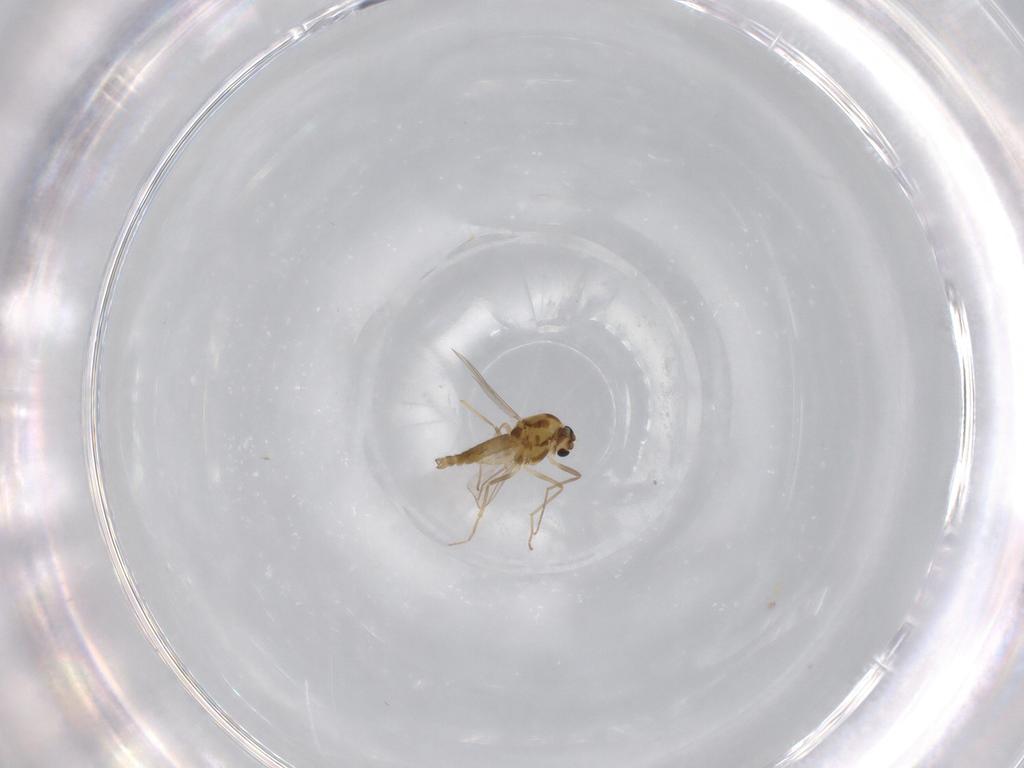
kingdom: Animalia
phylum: Arthropoda
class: Insecta
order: Diptera
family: Chironomidae
